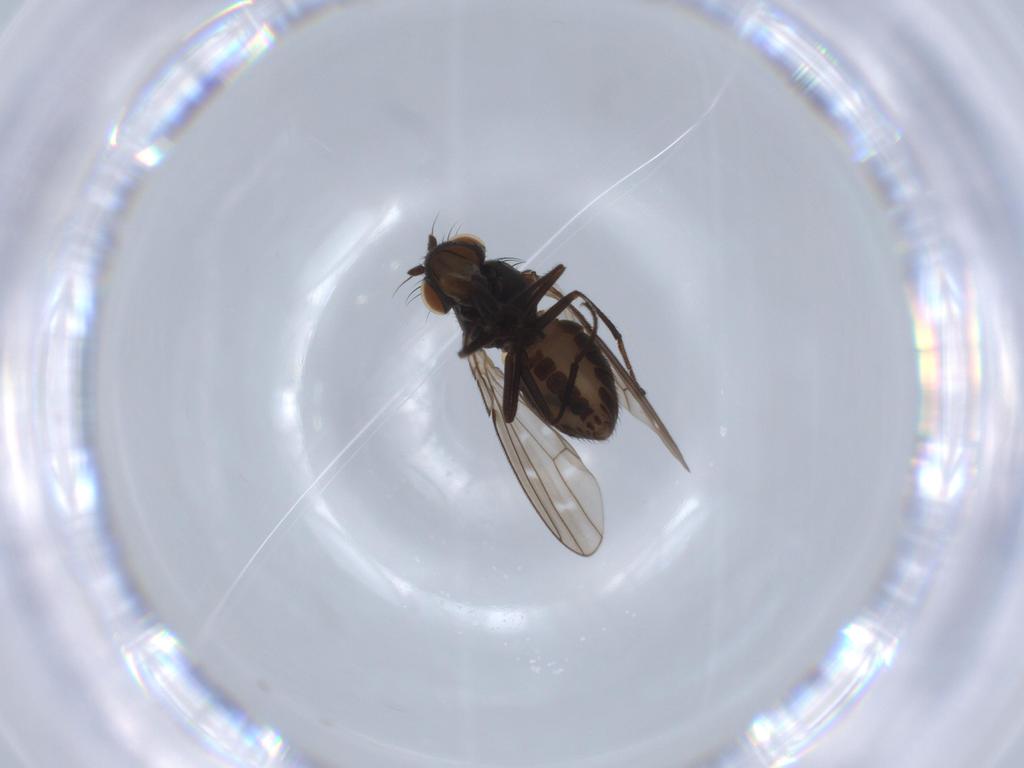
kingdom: Animalia
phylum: Arthropoda
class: Insecta
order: Diptera
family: Ephydridae
